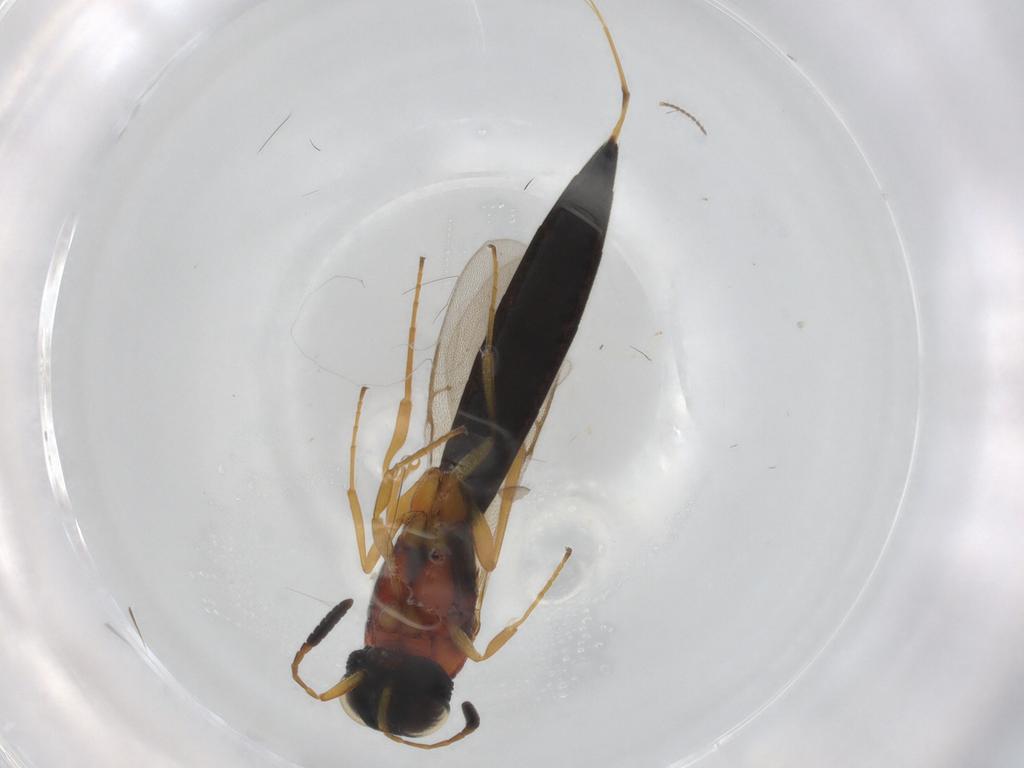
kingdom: Animalia
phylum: Arthropoda
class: Insecta
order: Hymenoptera
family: Scelionidae
